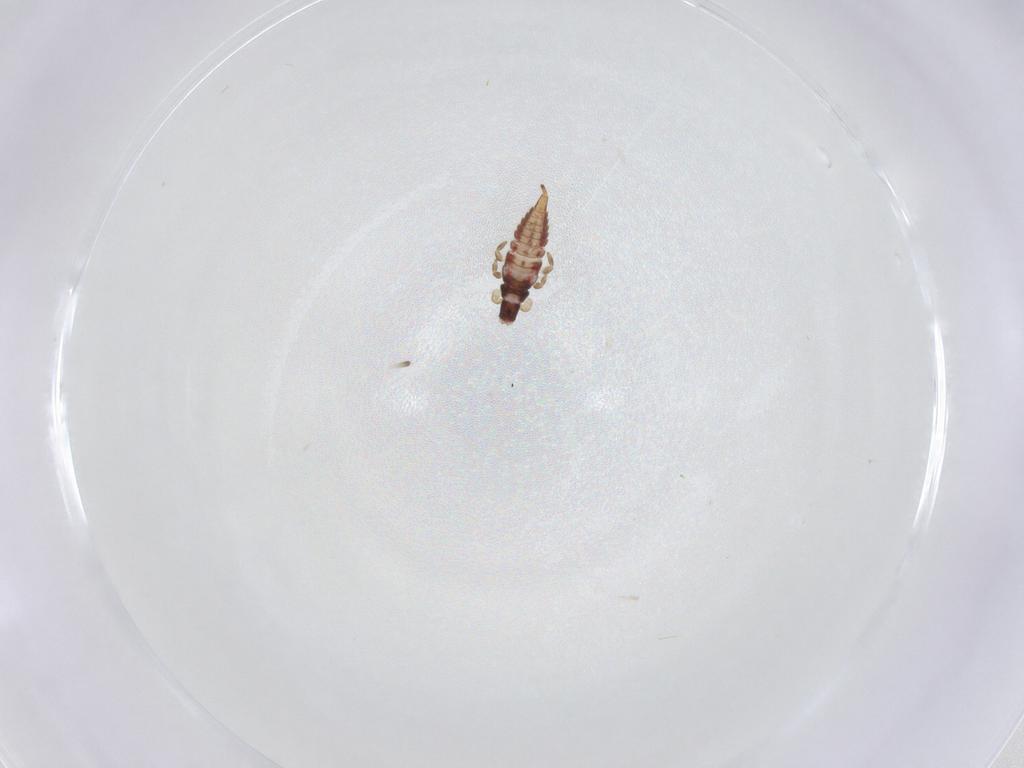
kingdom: Animalia
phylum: Arthropoda
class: Insecta
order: Thysanoptera
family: Phlaeothripidae
